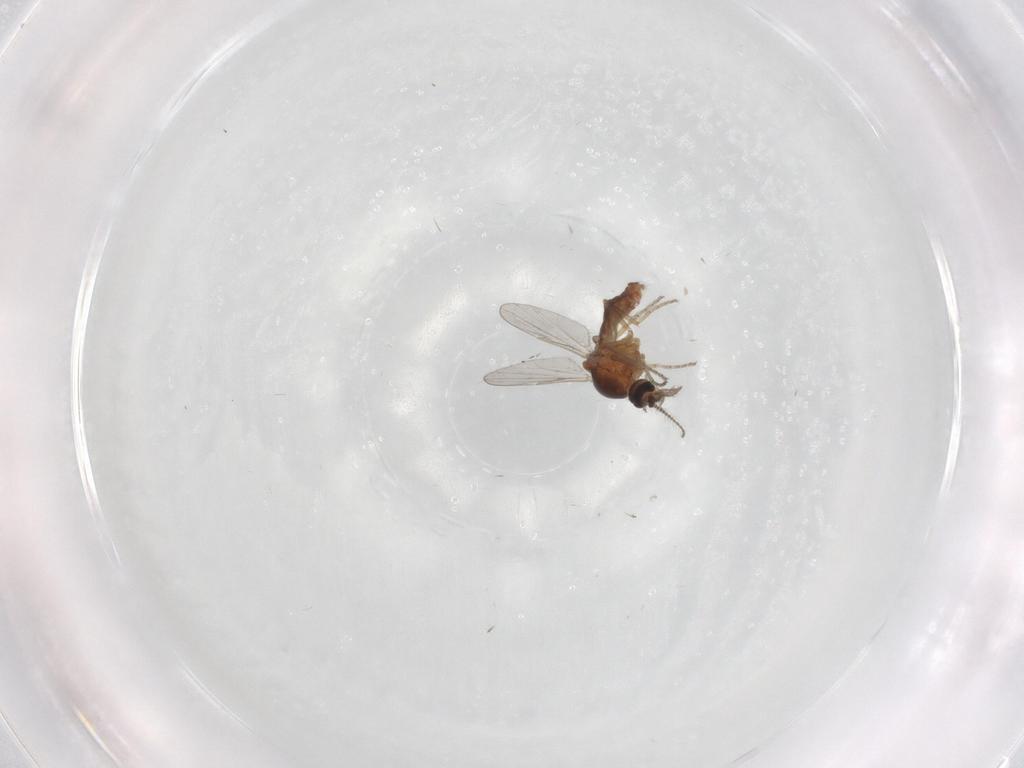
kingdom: Animalia
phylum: Arthropoda
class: Insecta
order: Diptera
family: Ceratopogonidae
